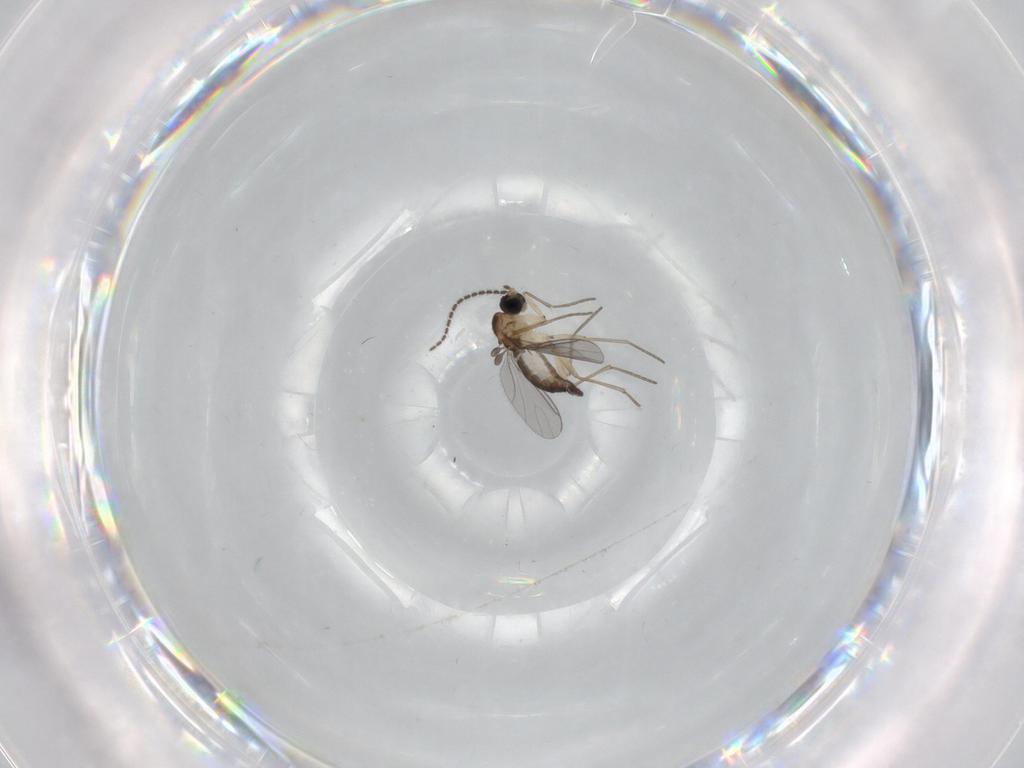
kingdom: Animalia
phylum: Arthropoda
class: Insecta
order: Diptera
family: Sciaridae
